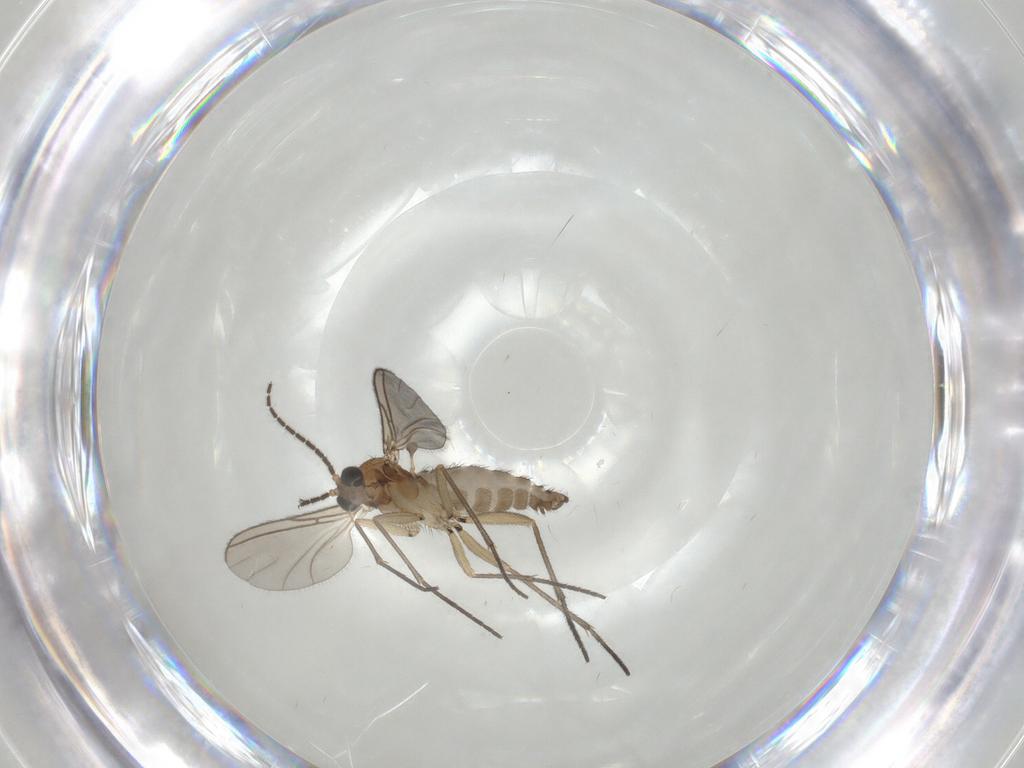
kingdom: Animalia
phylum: Arthropoda
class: Insecta
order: Diptera
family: Sciaridae
